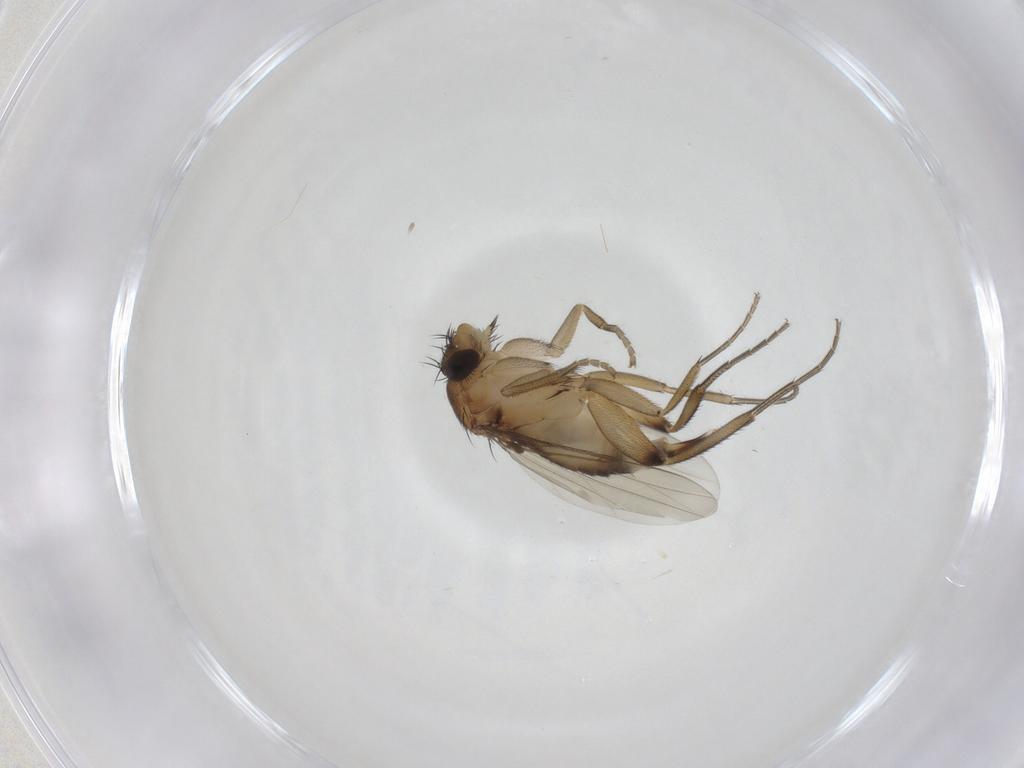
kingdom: Animalia
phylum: Arthropoda
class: Insecta
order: Diptera
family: Phoridae
